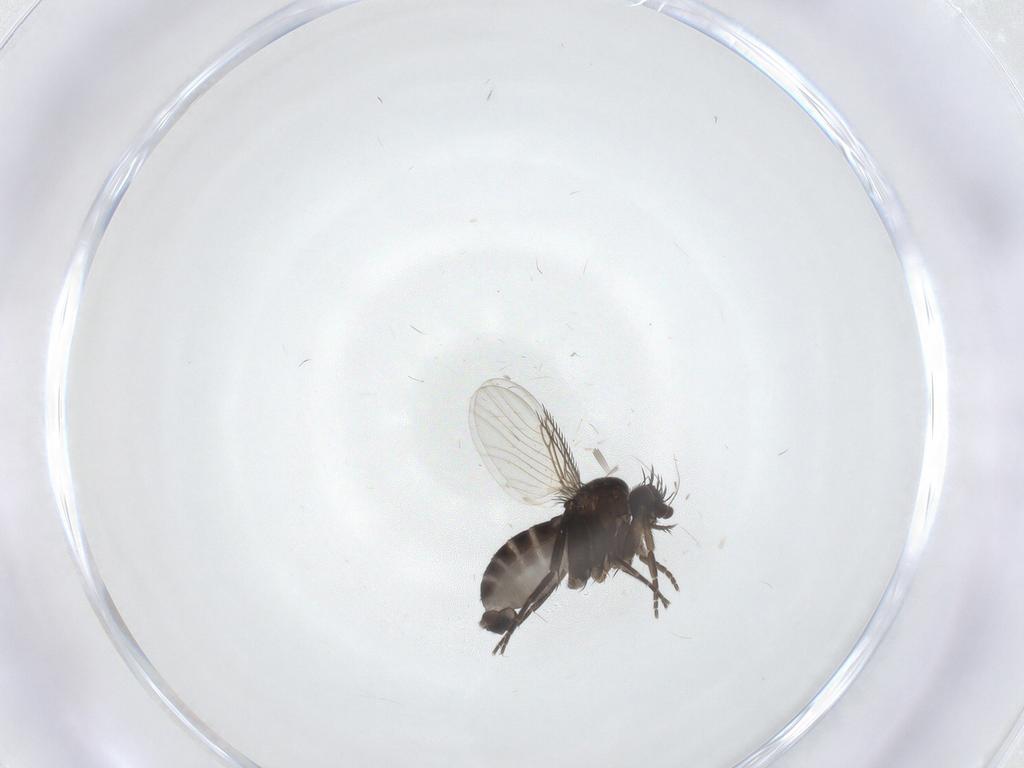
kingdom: Animalia
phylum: Arthropoda
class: Insecta
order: Diptera
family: Phoridae
